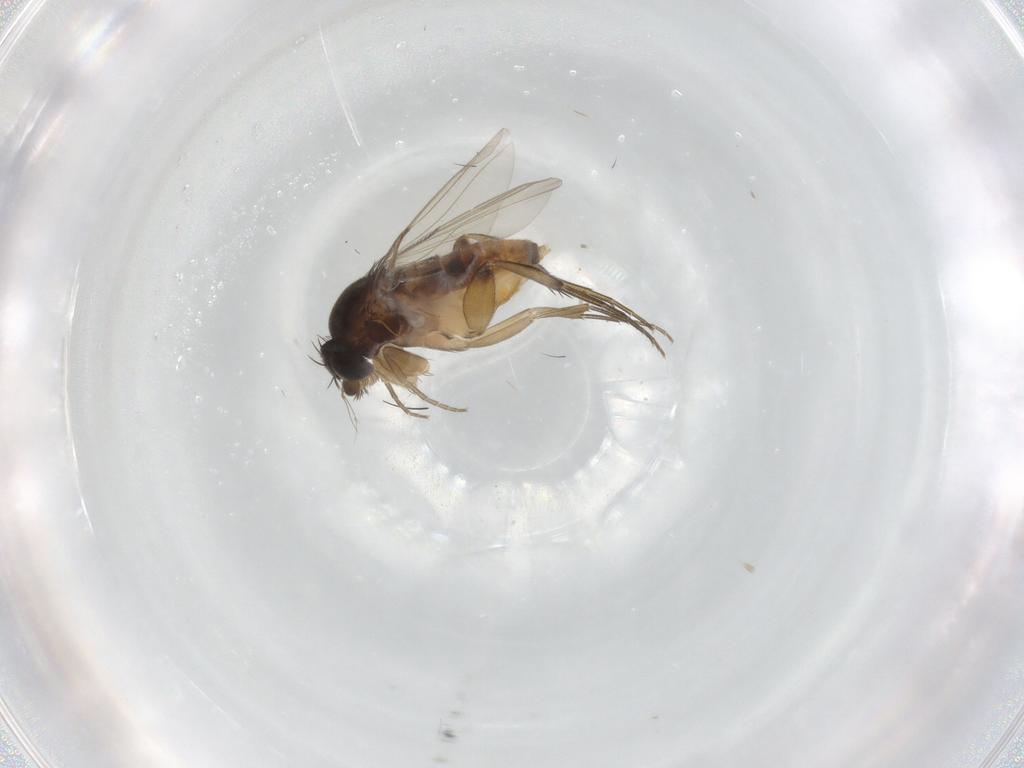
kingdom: Animalia
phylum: Arthropoda
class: Insecta
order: Diptera
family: Phoridae
